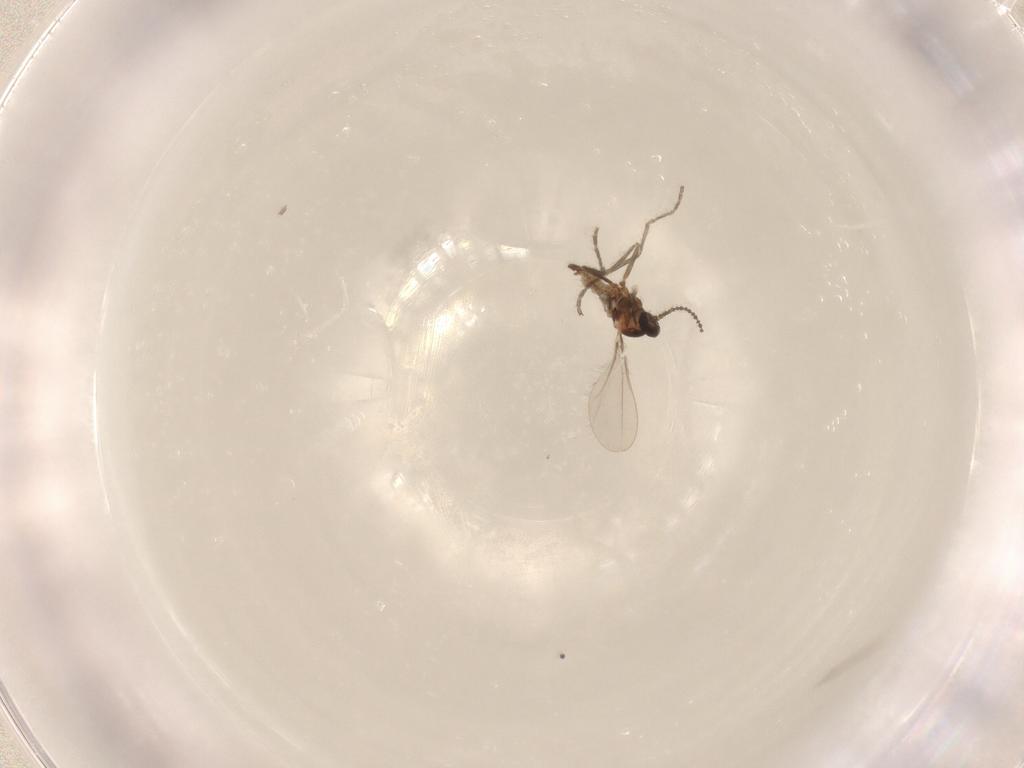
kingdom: Animalia
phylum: Arthropoda
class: Insecta
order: Diptera
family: Cecidomyiidae
